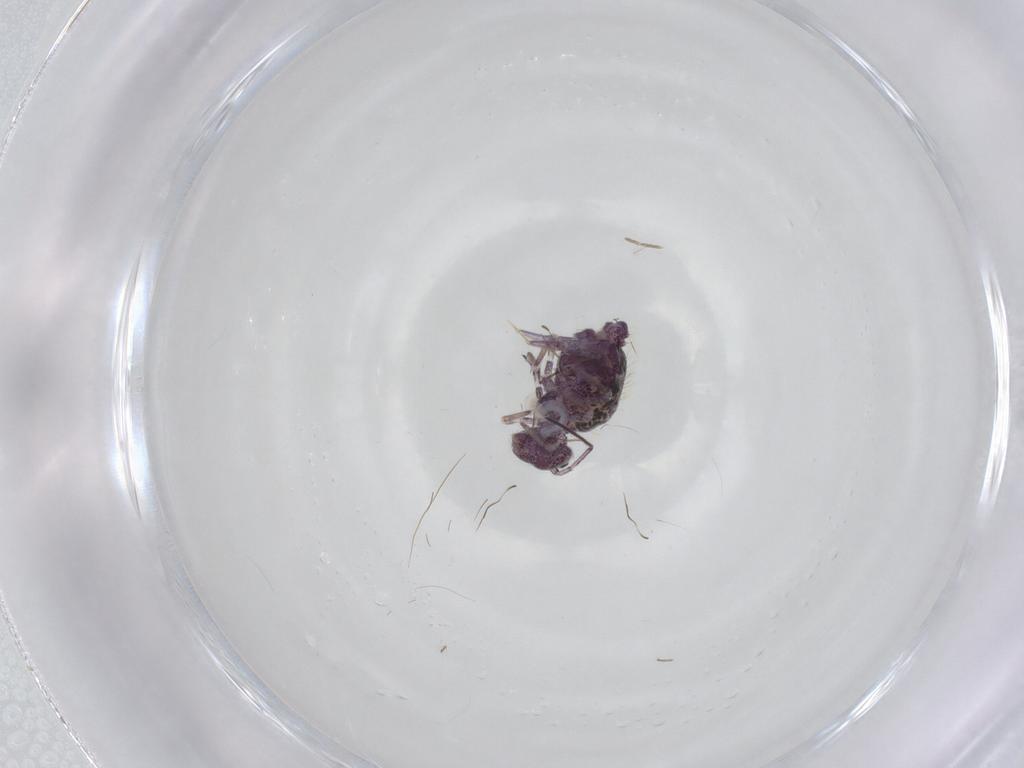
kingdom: Animalia
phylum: Arthropoda
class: Collembola
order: Symphypleona
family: Sminthuridae
